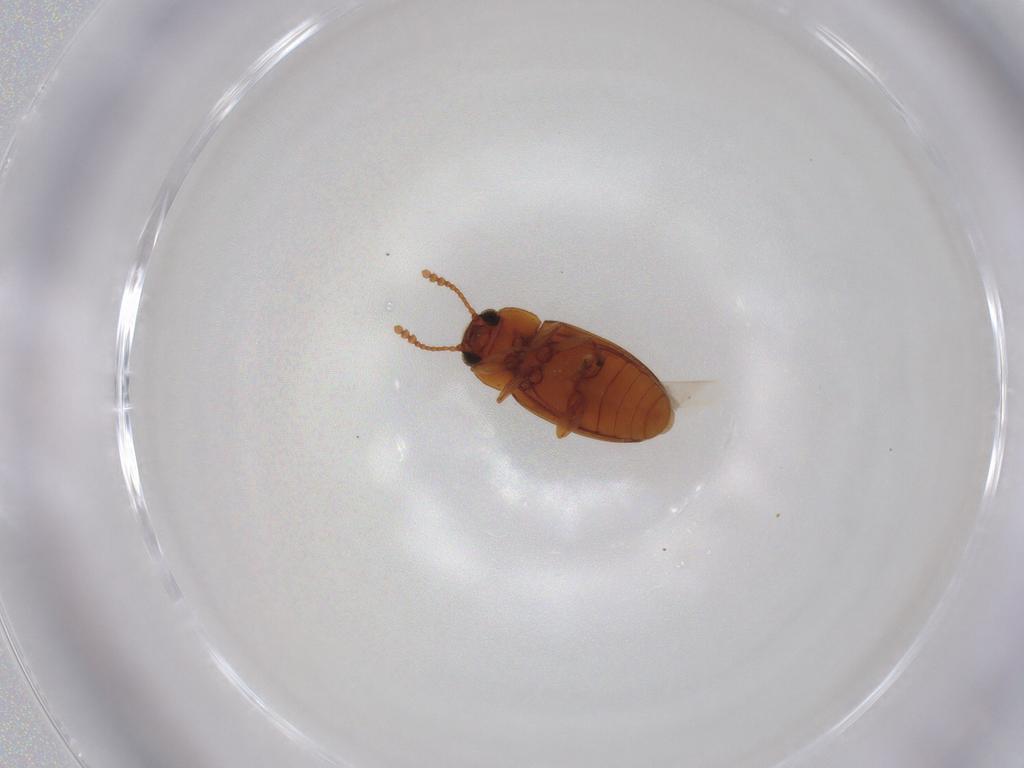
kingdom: Animalia
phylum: Arthropoda
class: Insecta
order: Coleoptera
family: Erotylidae
